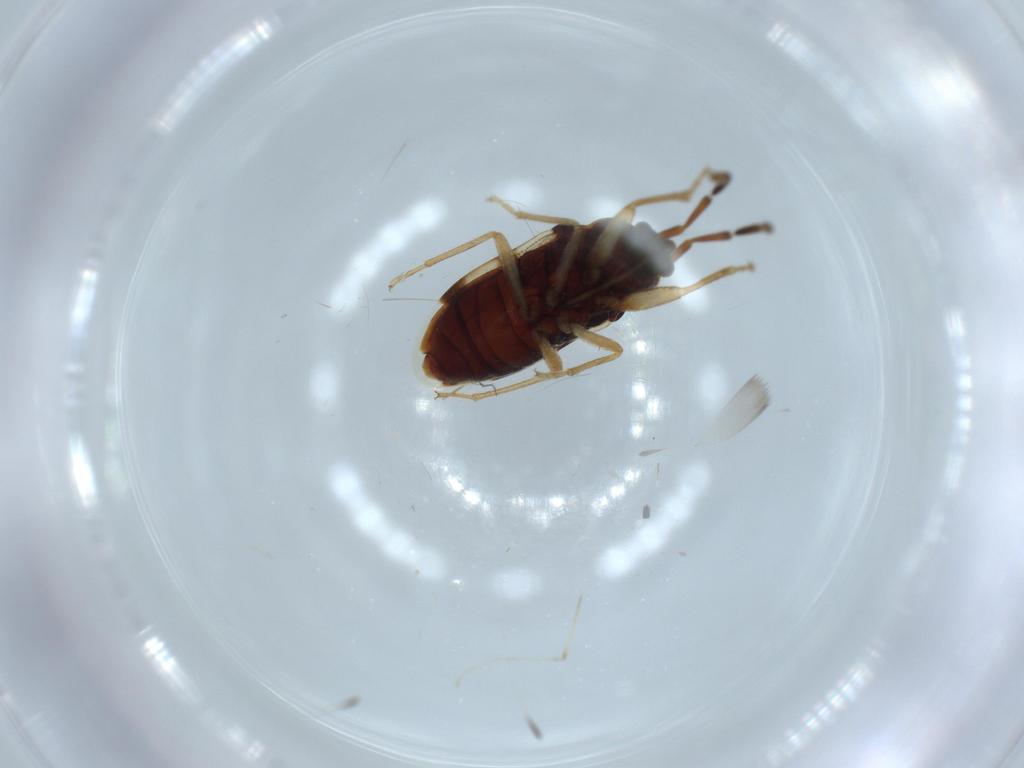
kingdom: Animalia
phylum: Arthropoda
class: Insecta
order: Hemiptera
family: Rhyparochromidae
